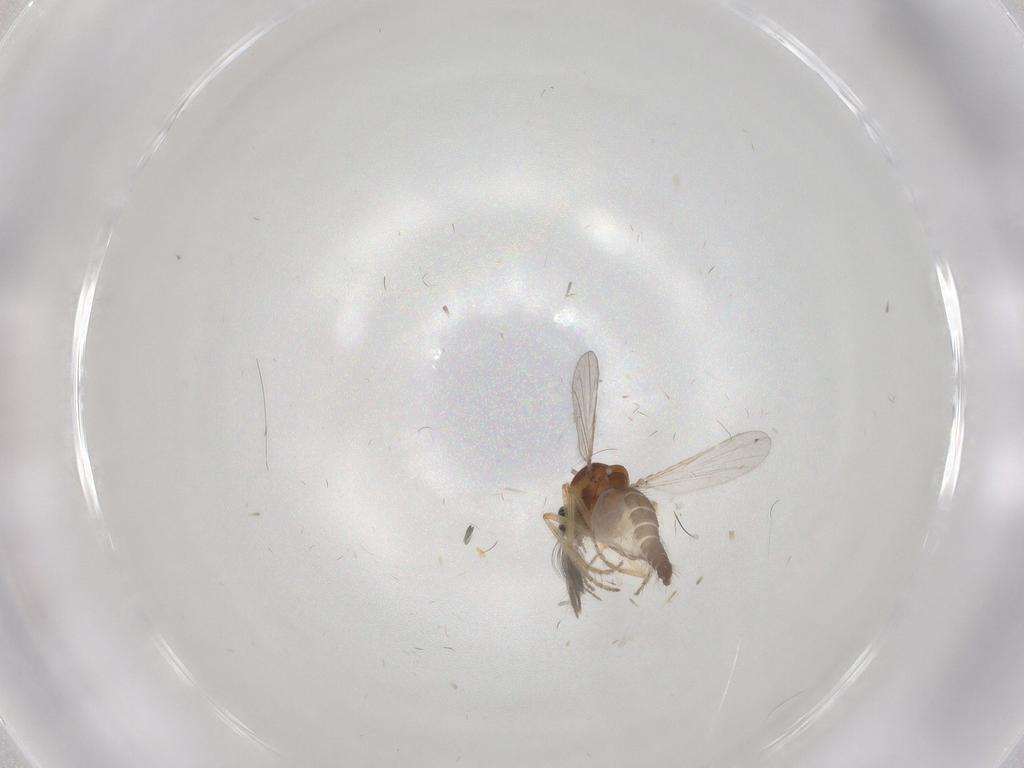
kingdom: Animalia
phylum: Arthropoda
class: Insecta
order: Diptera
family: Ceratopogonidae
